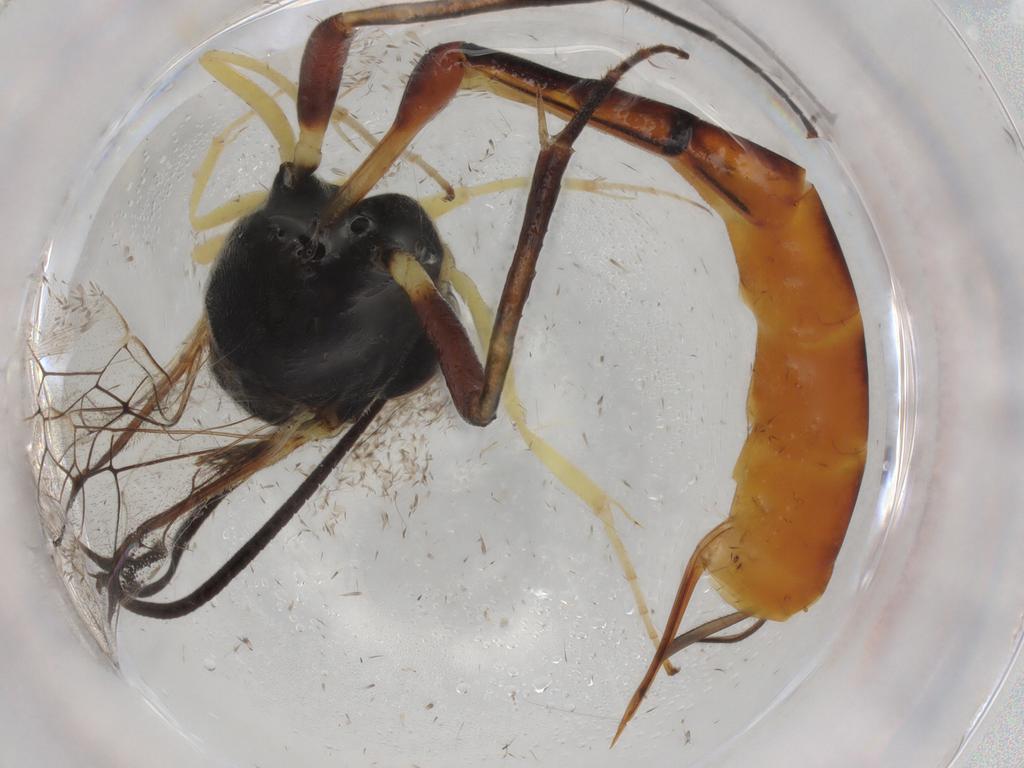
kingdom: Animalia
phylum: Arthropoda
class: Insecta
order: Hymenoptera
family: Ichneumonidae
